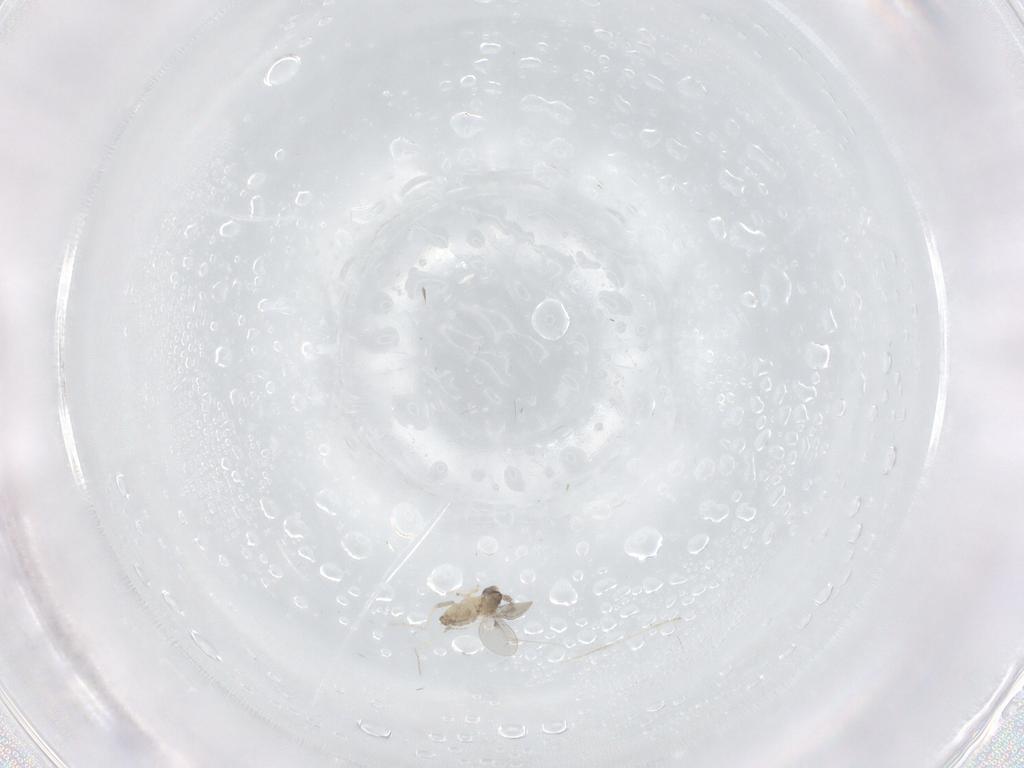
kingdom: Animalia
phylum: Arthropoda
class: Insecta
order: Diptera
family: Cecidomyiidae
